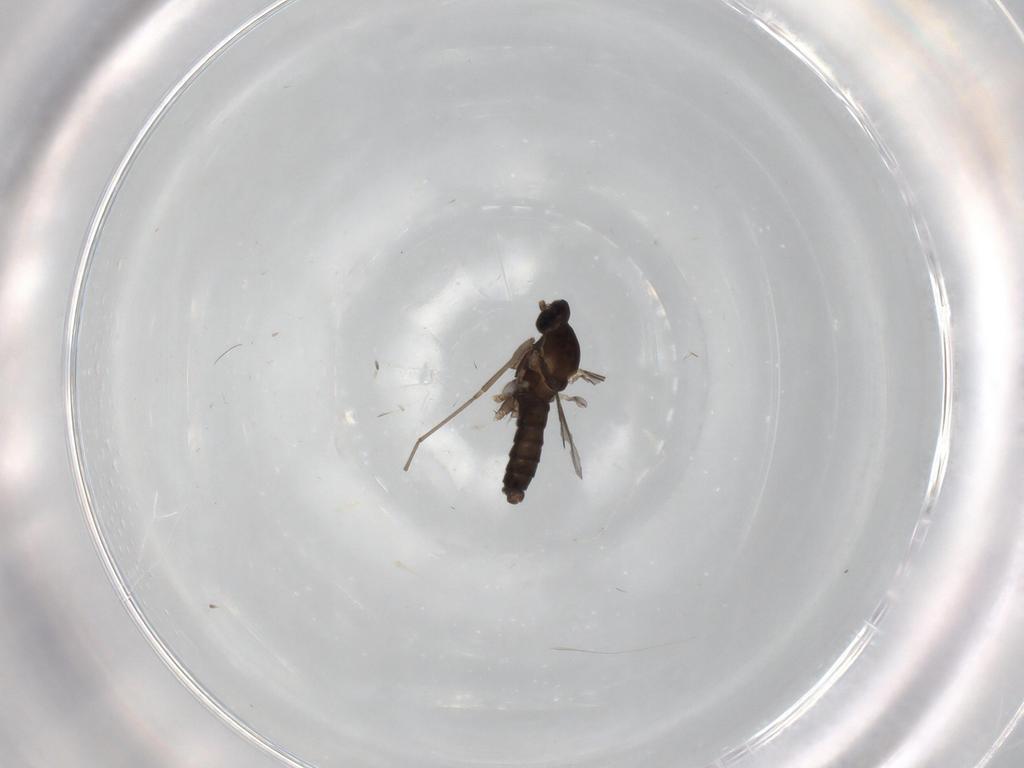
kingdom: Animalia
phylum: Arthropoda
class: Insecta
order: Diptera
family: Cecidomyiidae
